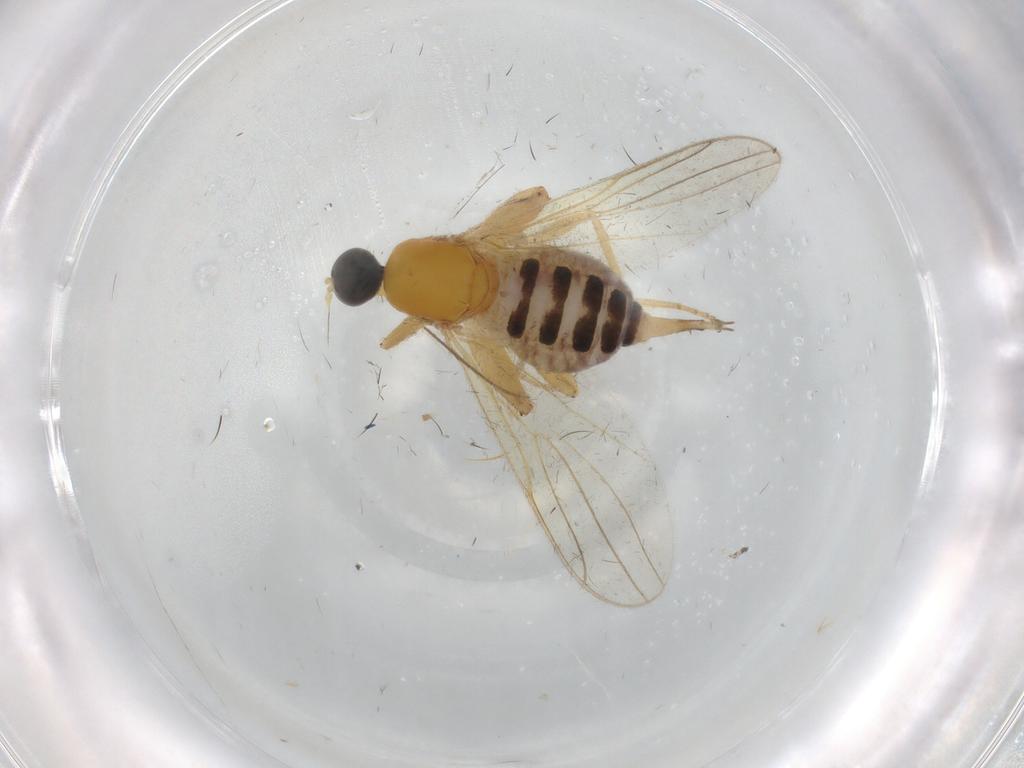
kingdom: Animalia
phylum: Arthropoda
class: Insecta
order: Diptera
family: Hybotidae
